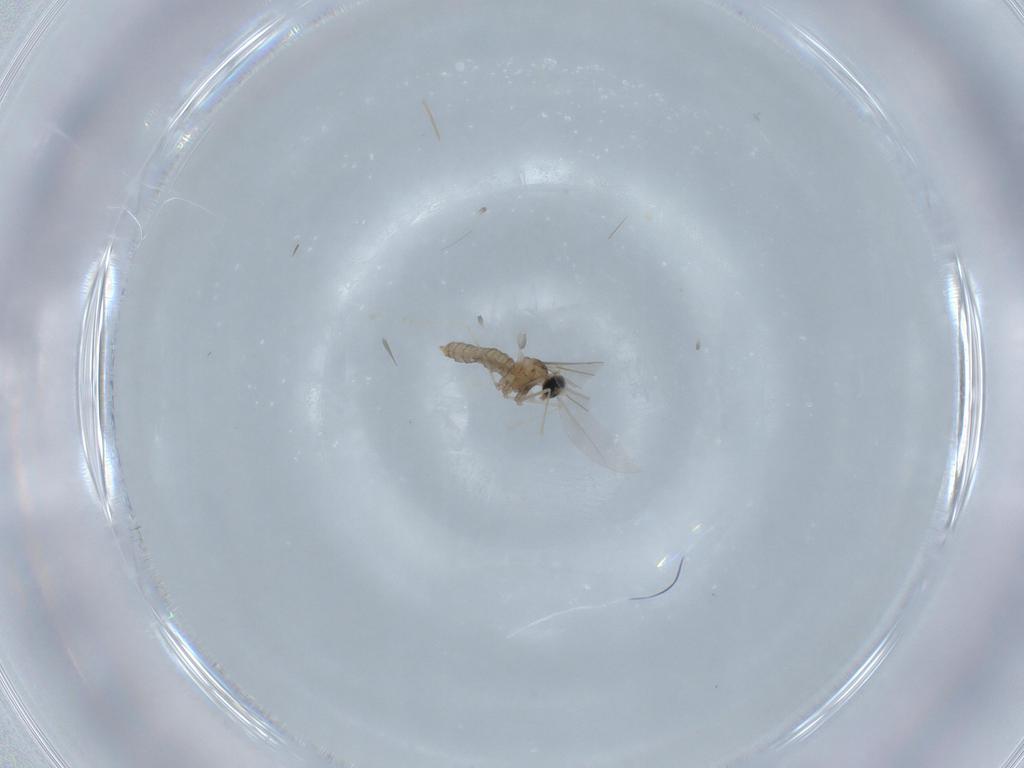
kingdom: Animalia
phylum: Arthropoda
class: Insecta
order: Diptera
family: Cecidomyiidae
